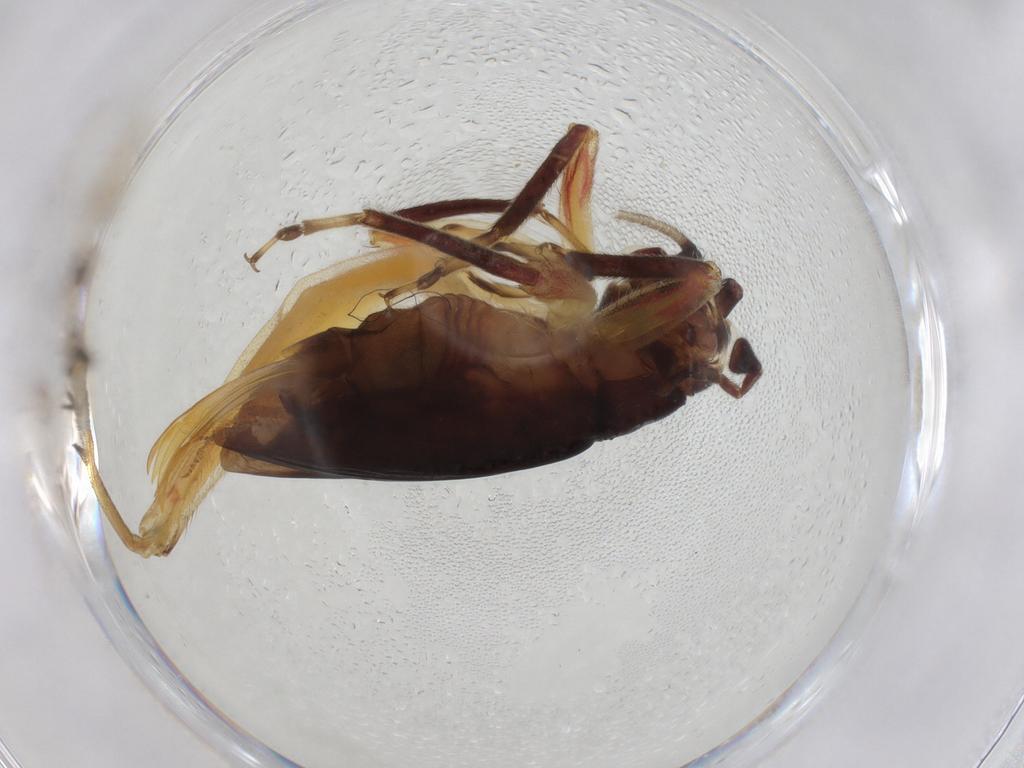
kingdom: Animalia
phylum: Arthropoda
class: Insecta
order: Orthoptera
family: Trigonidiidae
